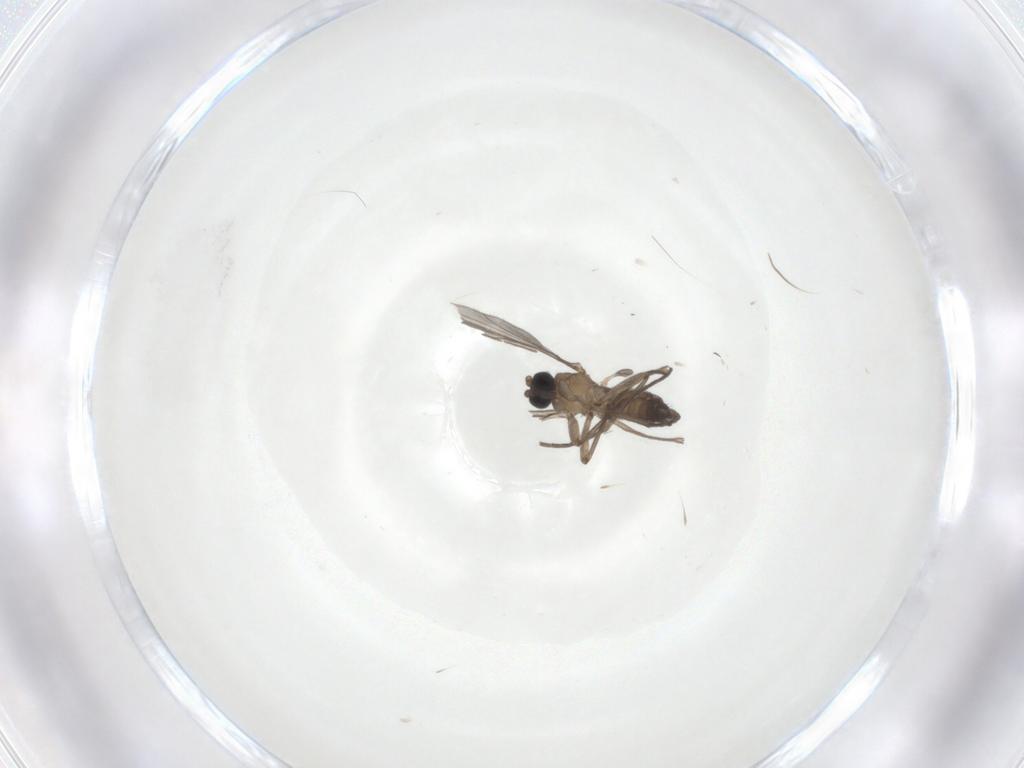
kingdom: Animalia
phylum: Arthropoda
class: Insecta
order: Diptera
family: Sciaridae
